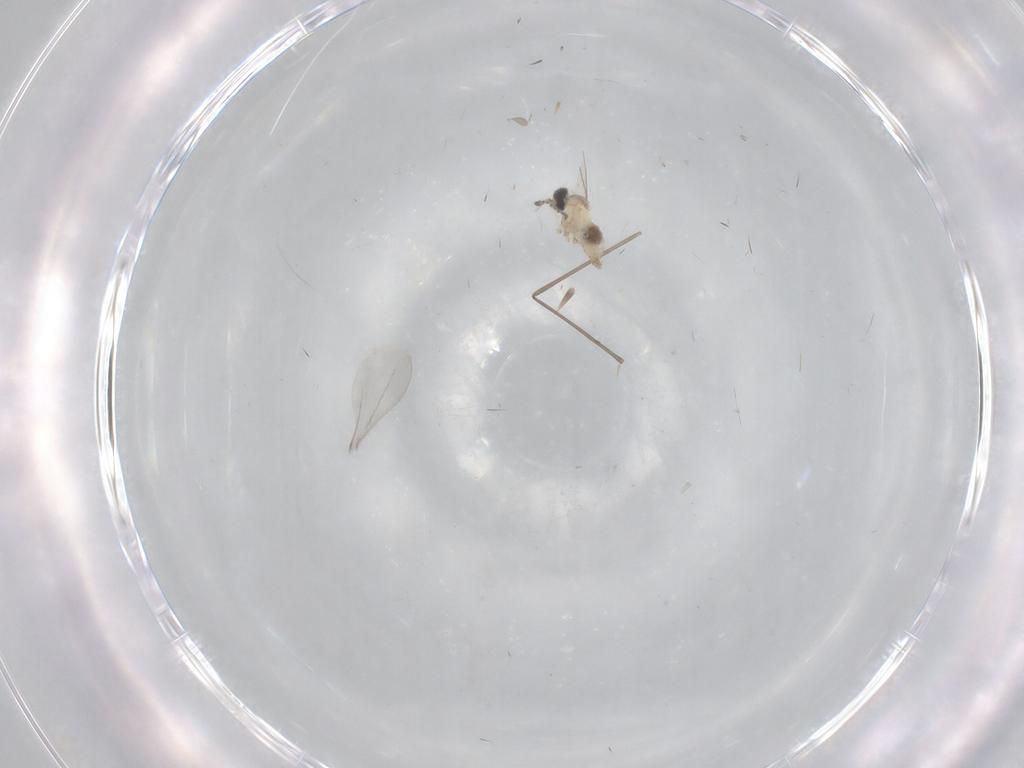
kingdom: Animalia
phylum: Arthropoda
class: Insecta
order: Diptera
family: Cecidomyiidae
